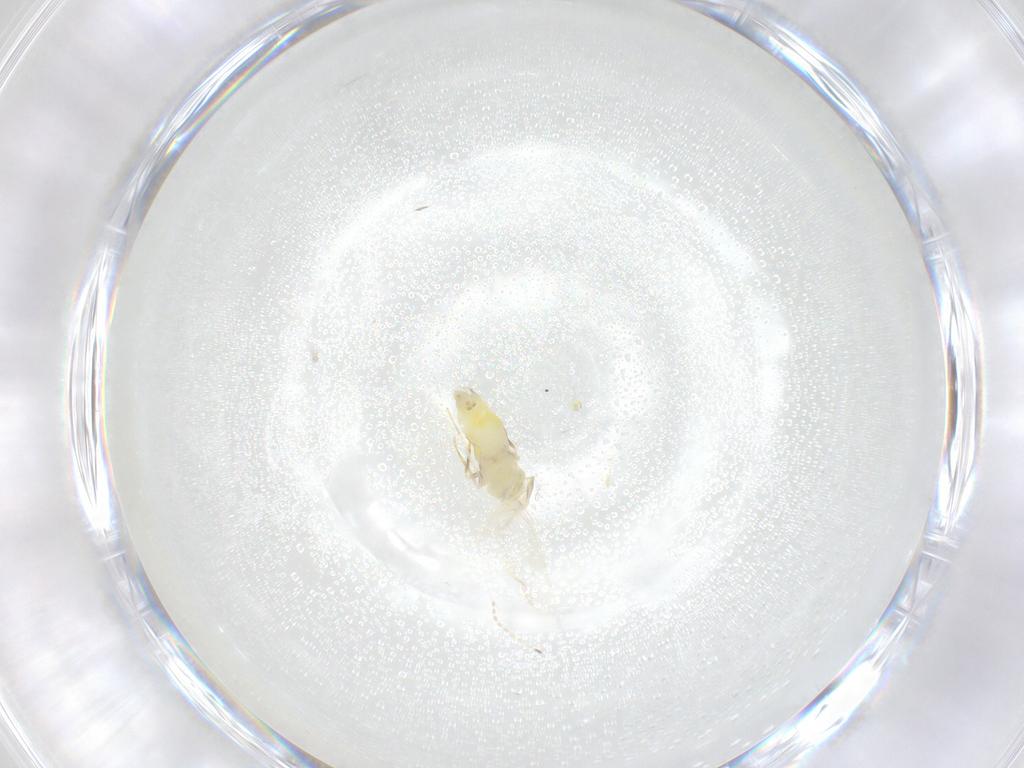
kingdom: Animalia
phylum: Arthropoda
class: Insecta
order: Hemiptera
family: Aleyrodidae
